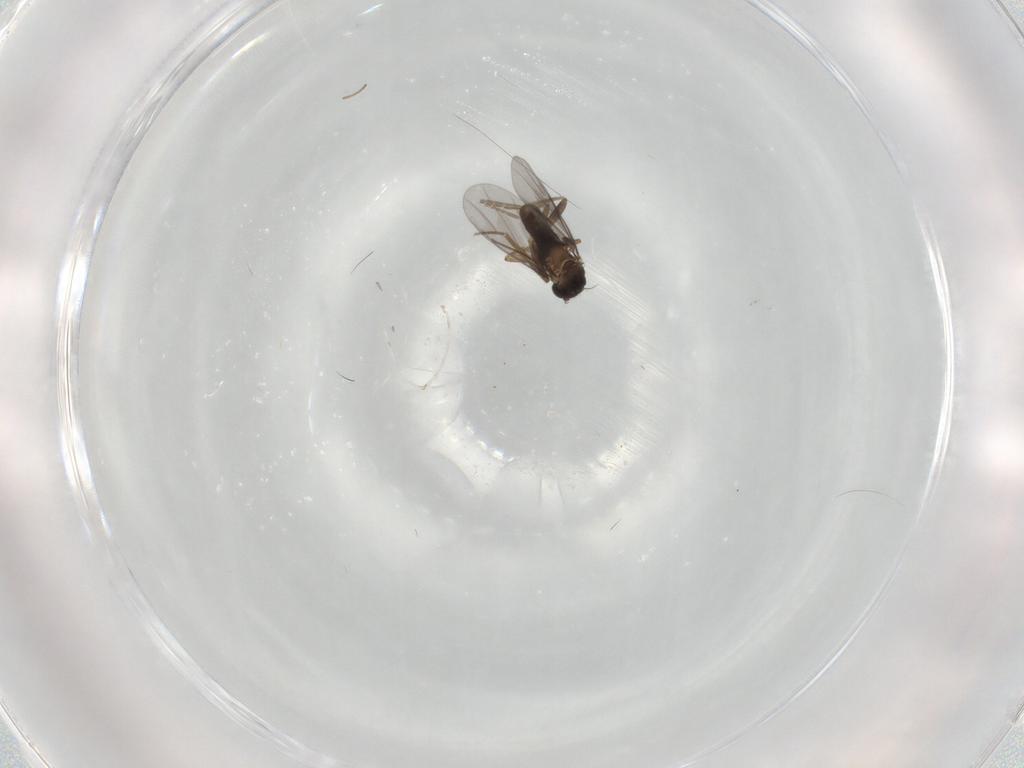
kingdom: Animalia
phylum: Arthropoda
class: Insecta
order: Diptera
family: Chironomidae
